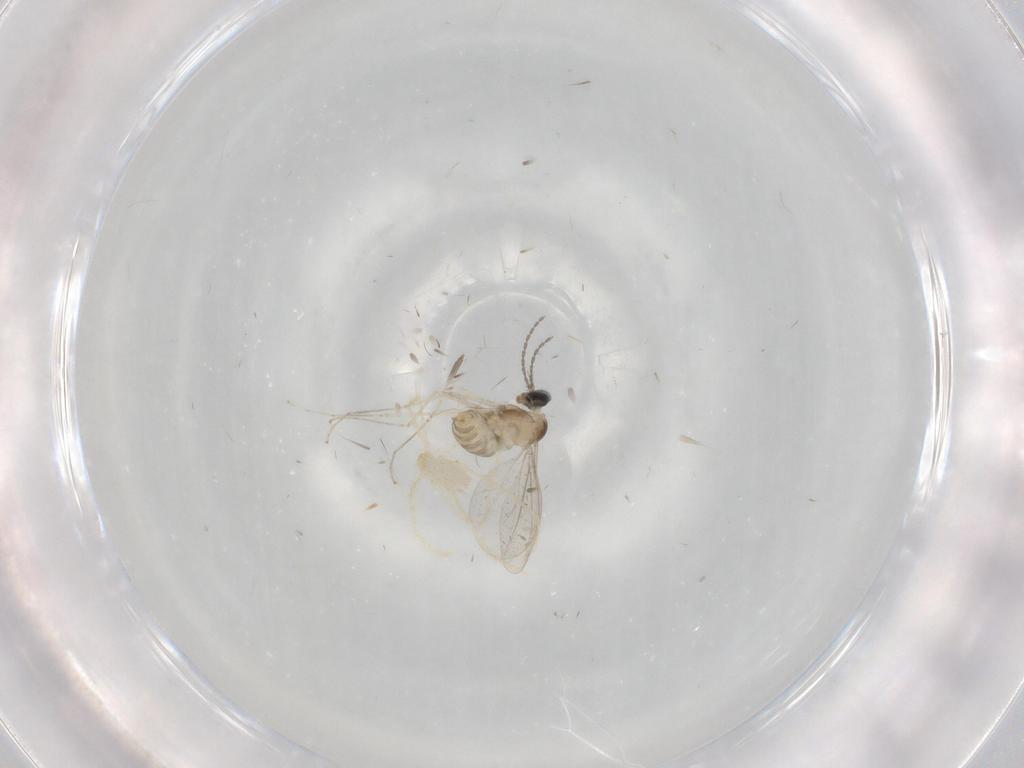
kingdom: Animalia
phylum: Arthropoda
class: Insecta
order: Diptera
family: Cecidomyiidae
